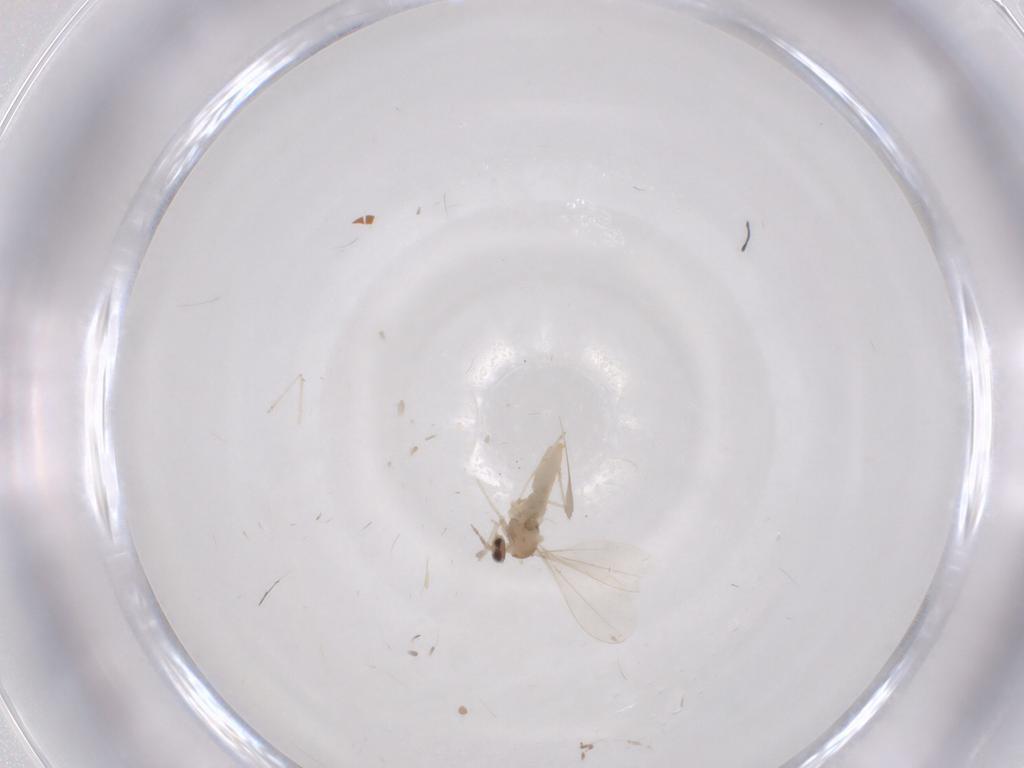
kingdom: Animalia
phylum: Arthropoda
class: Insecta
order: Diptera
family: Cecidomyiidae
